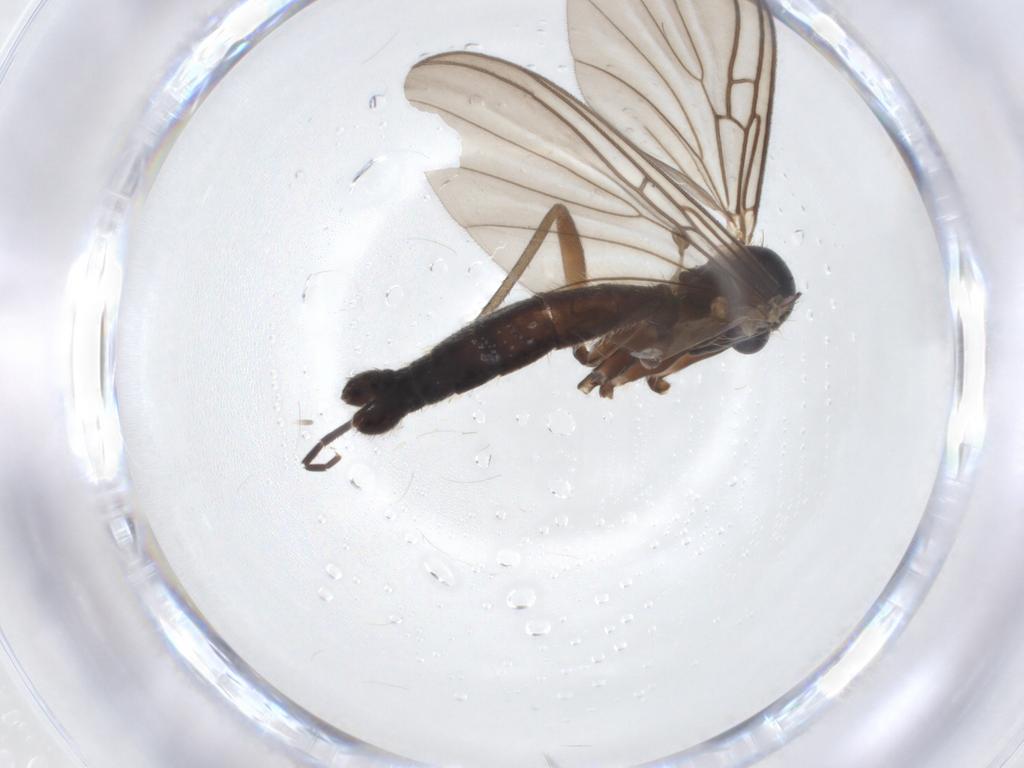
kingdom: Animalia
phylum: Arthropoda
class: Insecta
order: Diptera
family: Mycetophilidae
